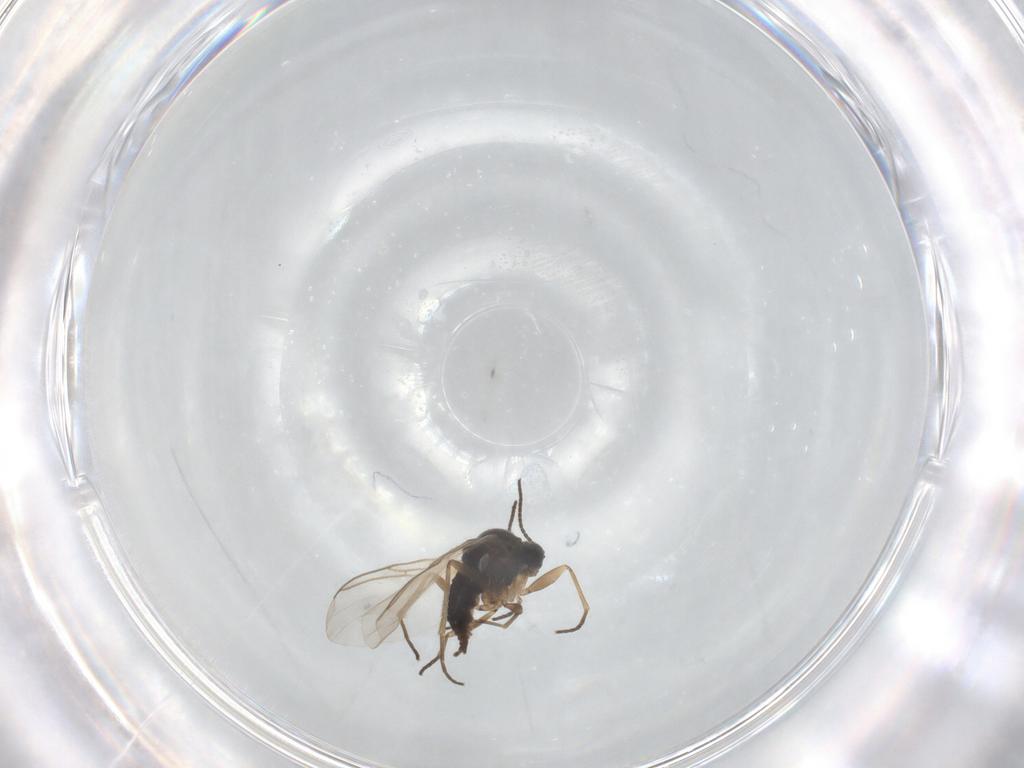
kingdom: Animalia
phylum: Arthropoda
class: Insecta
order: Diptera
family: Sciaridae
